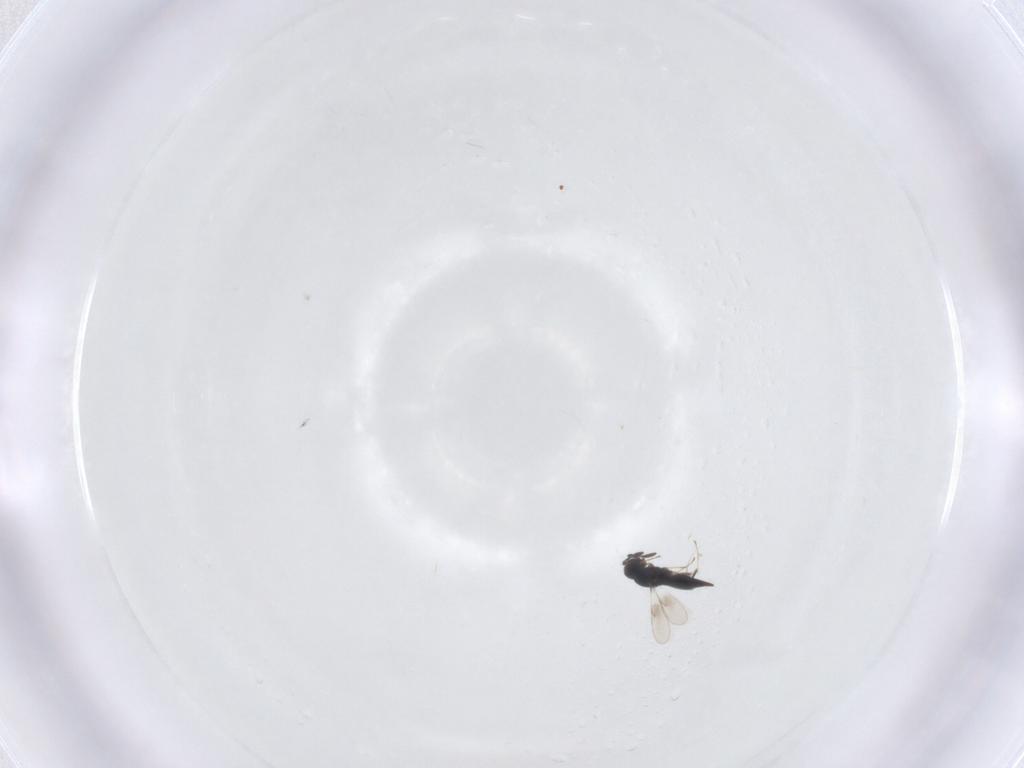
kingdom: Animalia
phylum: Arthropoda
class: Insecta
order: Hymenoptera
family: Scelionidae
